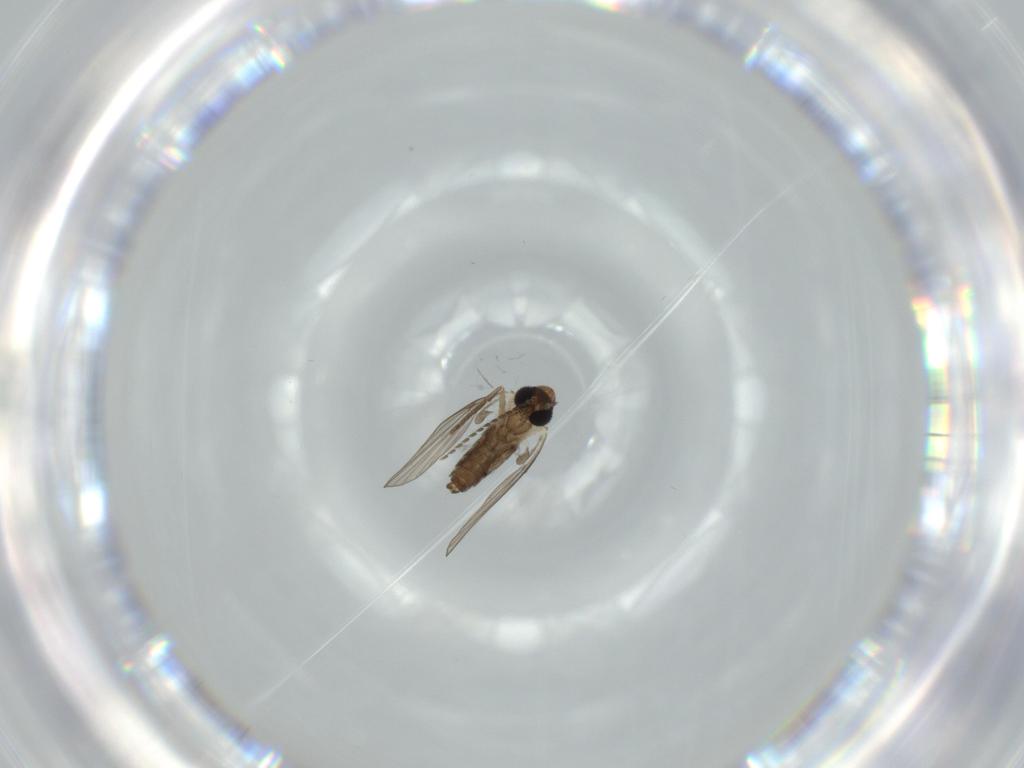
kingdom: Animalia
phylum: Arthropoda
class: Insecta
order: Diptera
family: Psychodidae
